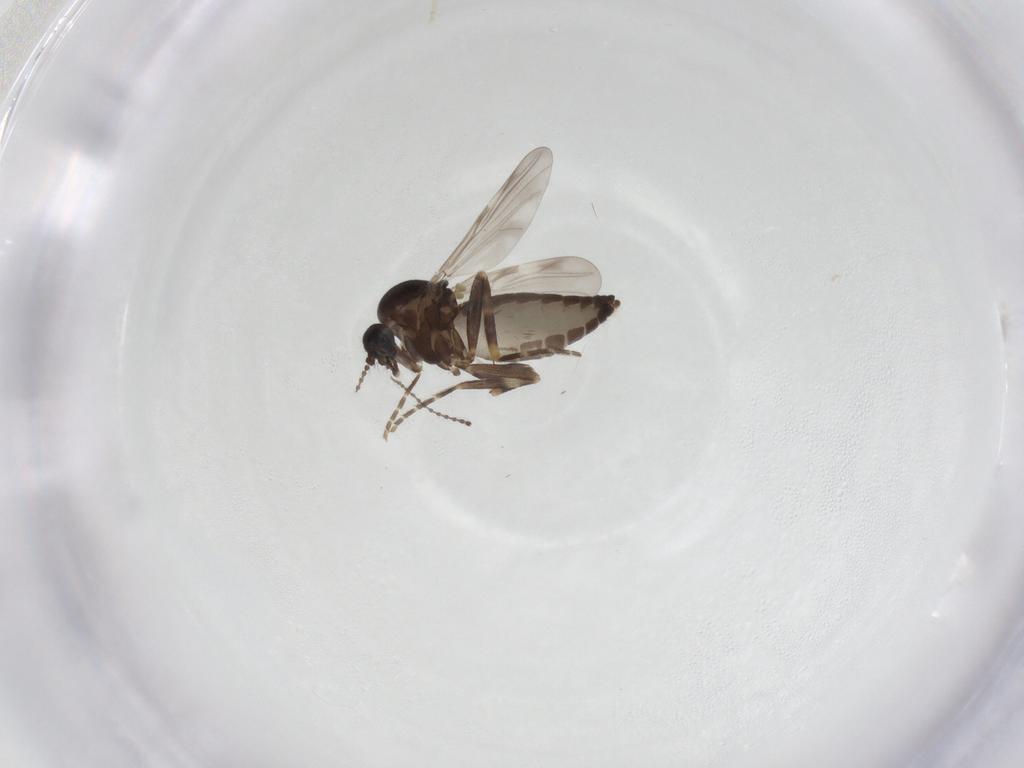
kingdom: Animalia
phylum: Arthropoda
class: Insecta
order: Diptera
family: Ceratopogonidae
